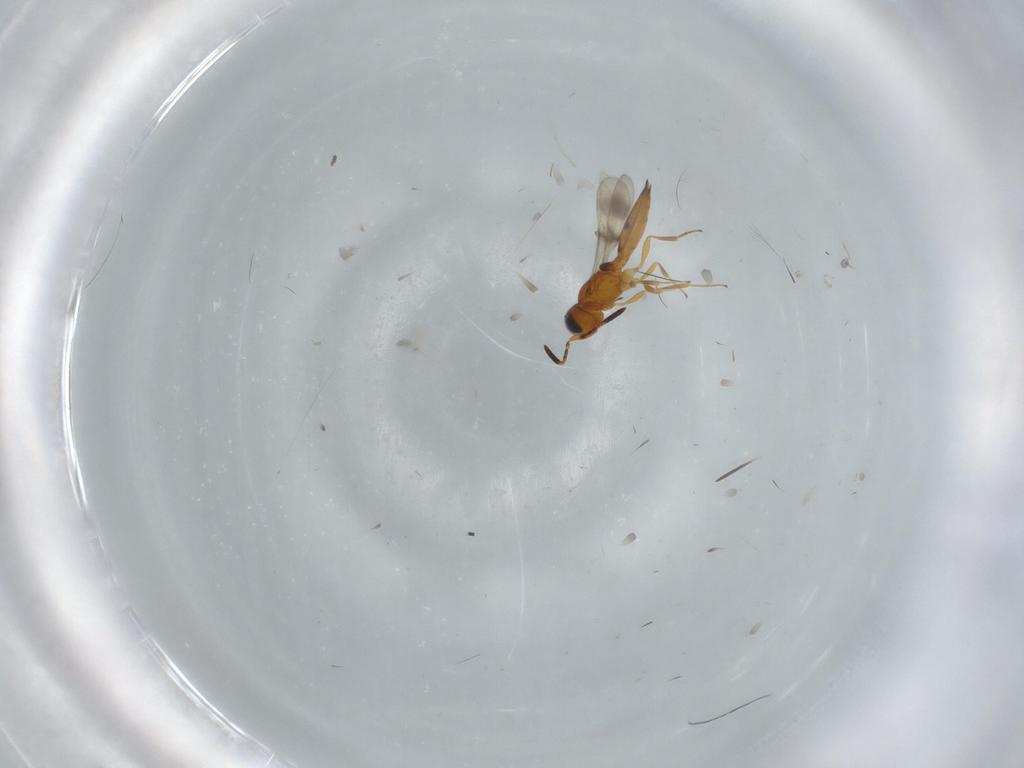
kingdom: Animalia
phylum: Arthropoda
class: Insecta
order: Hymenoptera
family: Scelionidae
